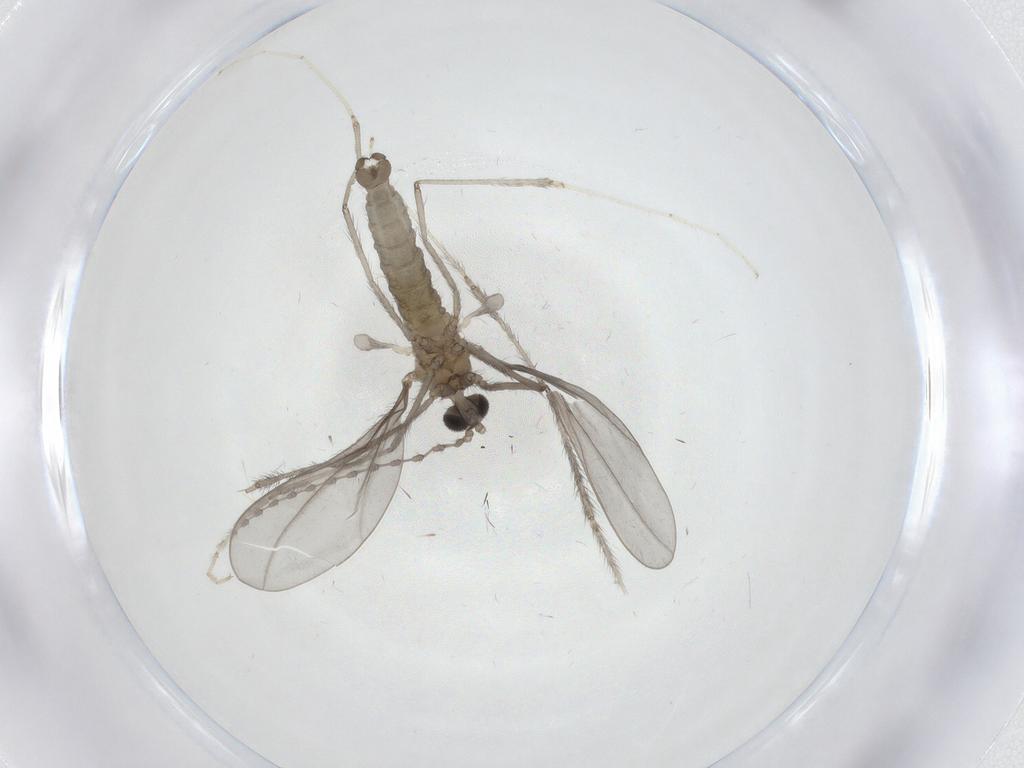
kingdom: Animalia
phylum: Arthropoda
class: Insecta
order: Diptera
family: Cecidomyiidae
